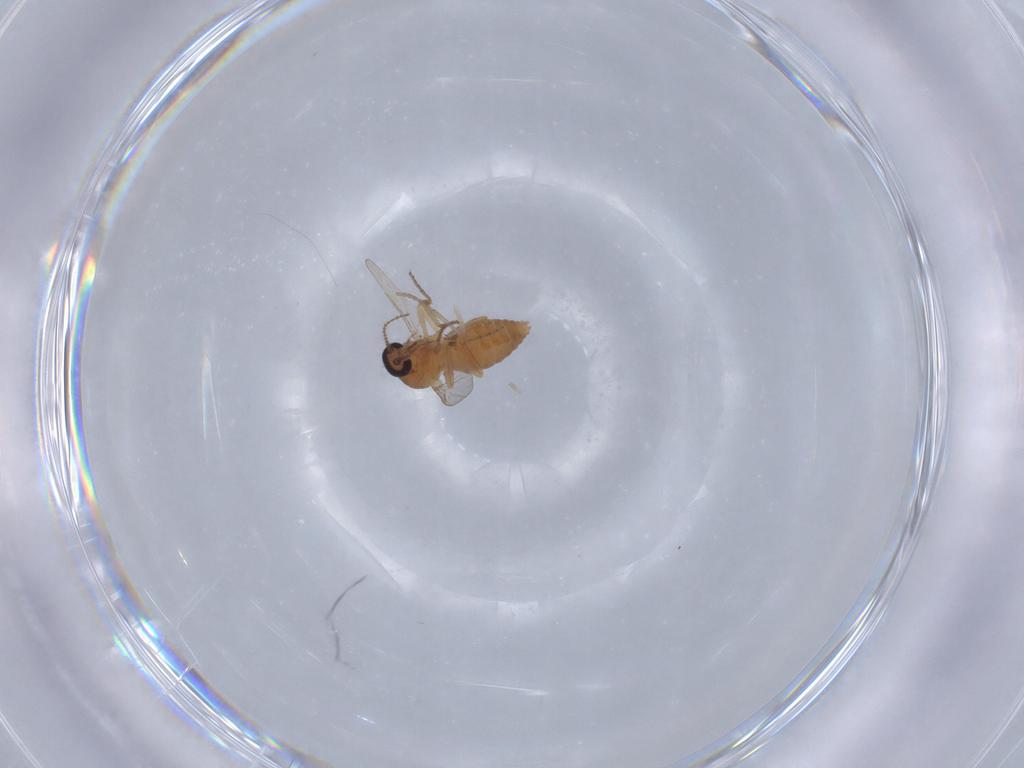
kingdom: Animalia
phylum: Arthropoda
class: Insecta
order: Diptera
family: Ceratopogonidae
